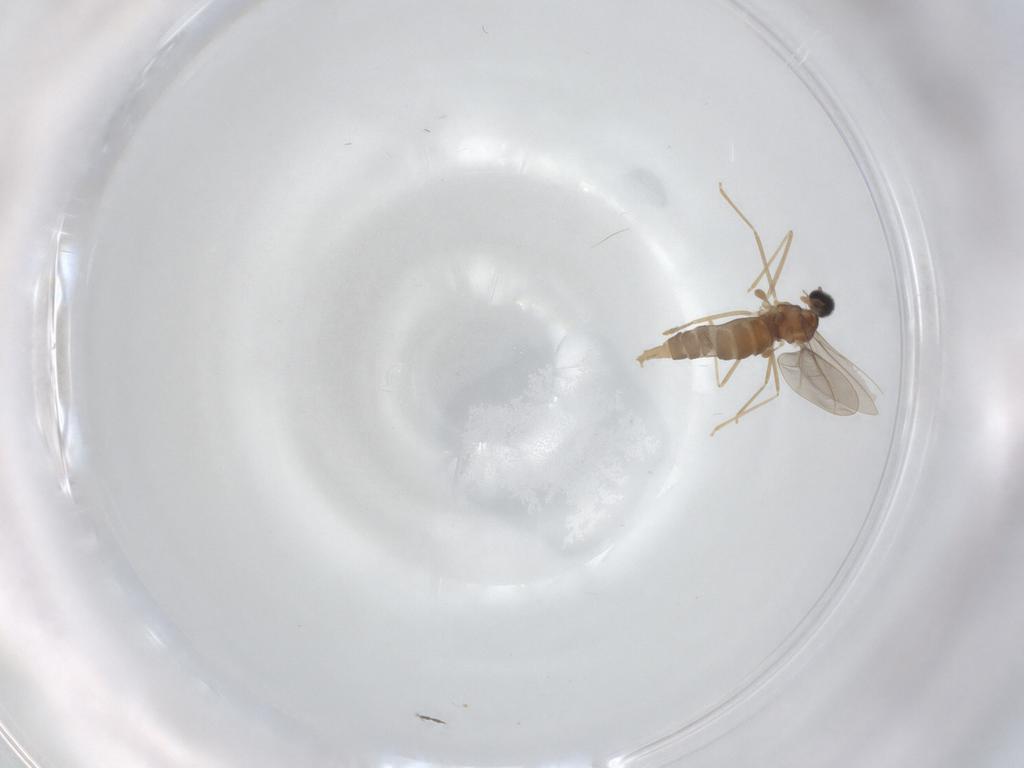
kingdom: Animalia
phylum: Arthropoda
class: Insecta
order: Diptera
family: Cecidomyiidae
